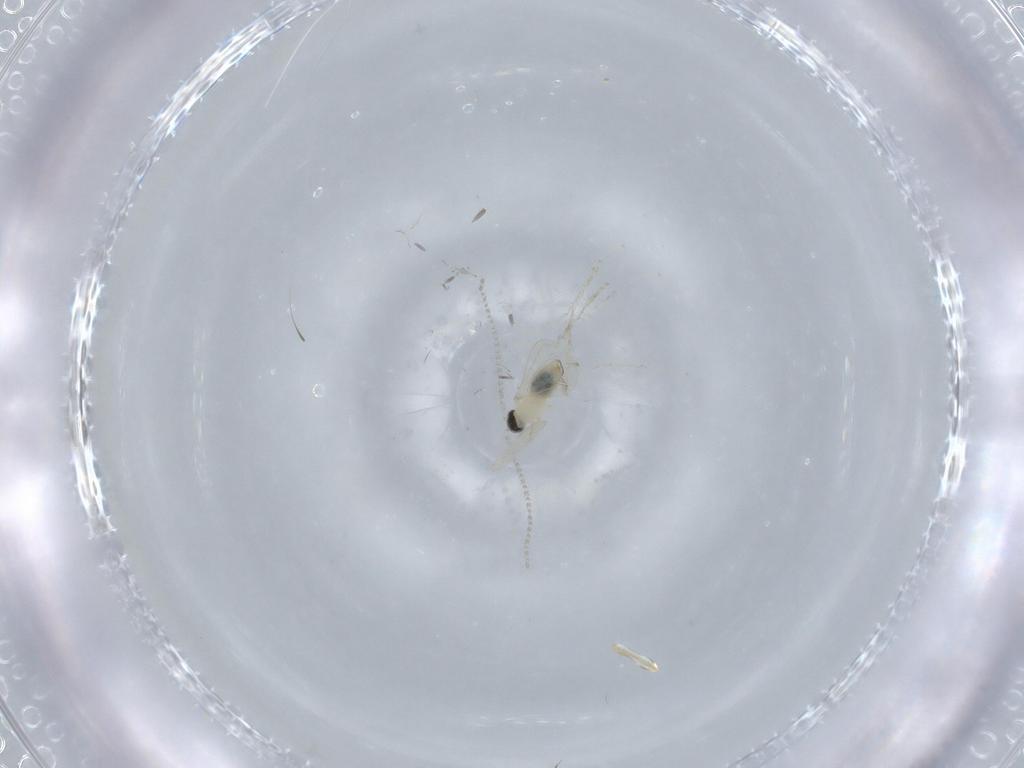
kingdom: Animalia
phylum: Arthropoda
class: Insecta
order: Diptera
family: Cecidomyiidae
